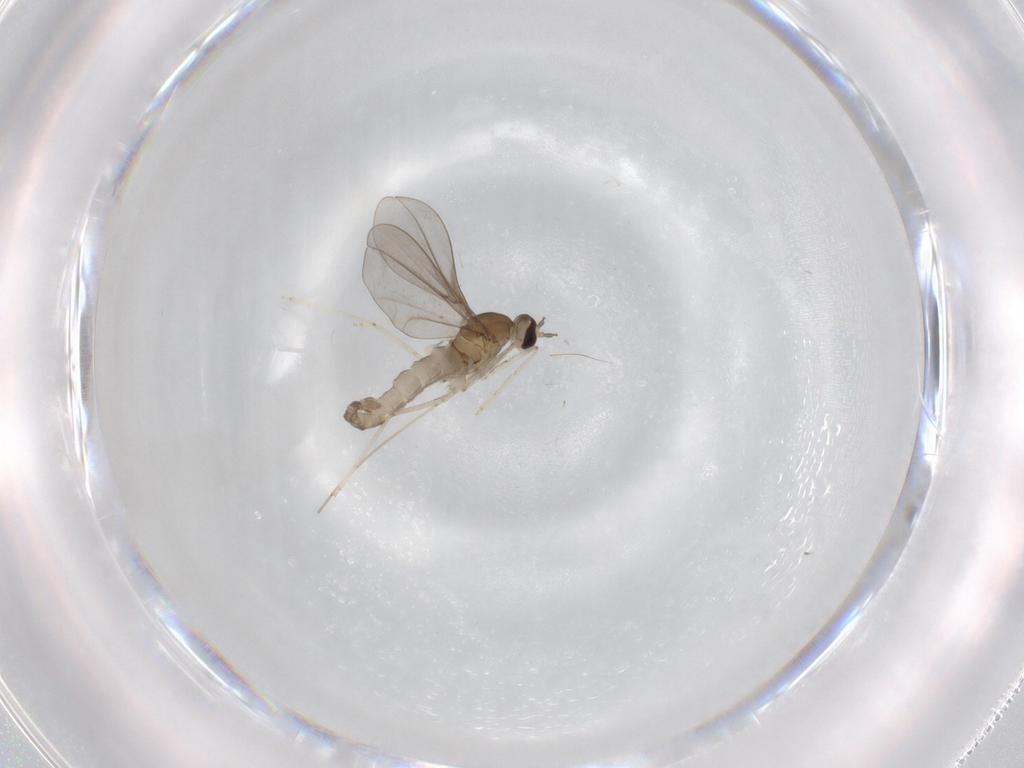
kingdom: Animalia
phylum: Arthropoda
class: Insecta
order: Diptera
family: Cecidomyiidae
